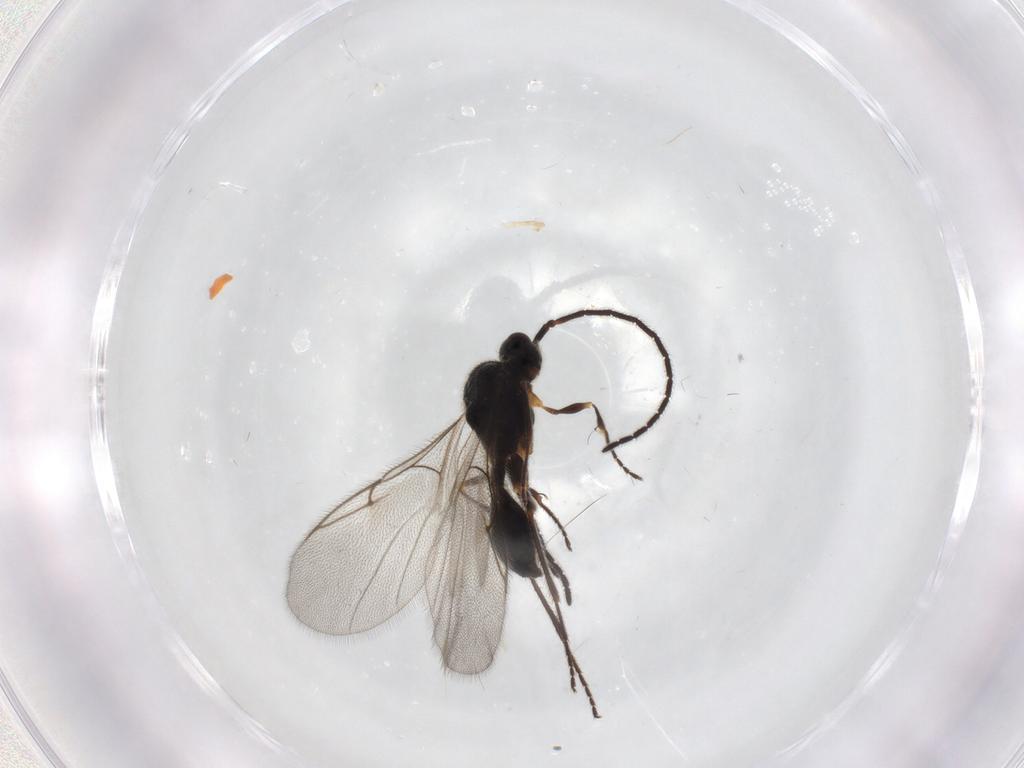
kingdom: Animalia
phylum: Arthropoda
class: Insecta
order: Hymenoptera
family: Diapriidae
